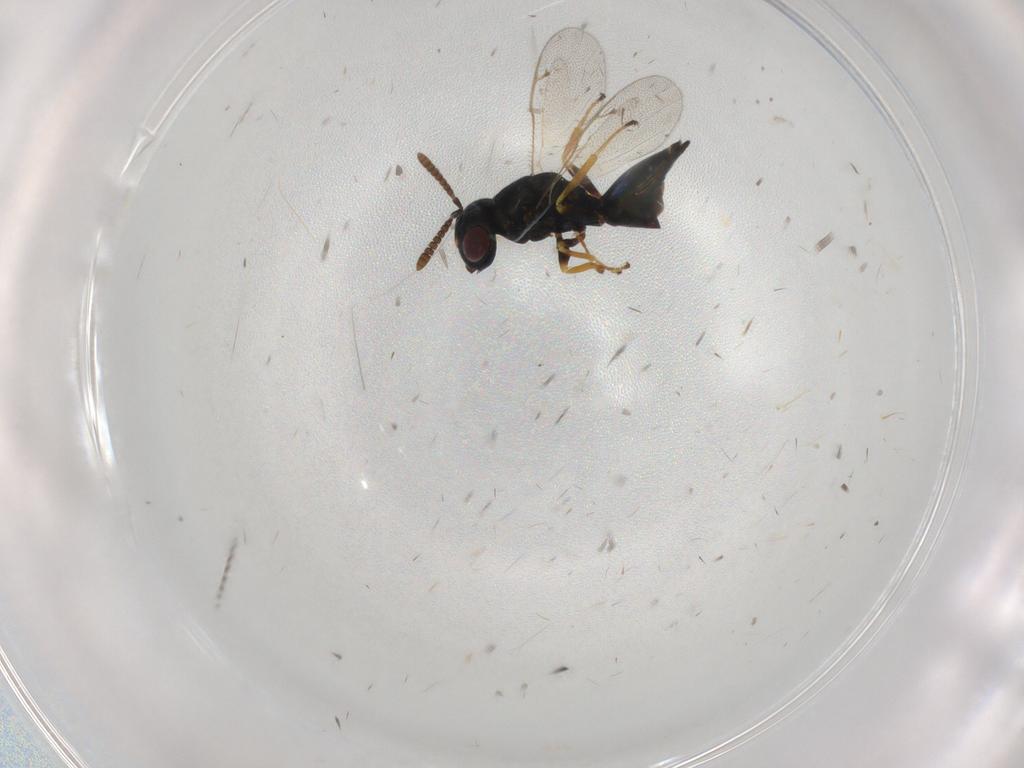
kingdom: Animalia
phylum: Arthropoda
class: Insecta
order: Hymenoptera
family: Pteromalidae
